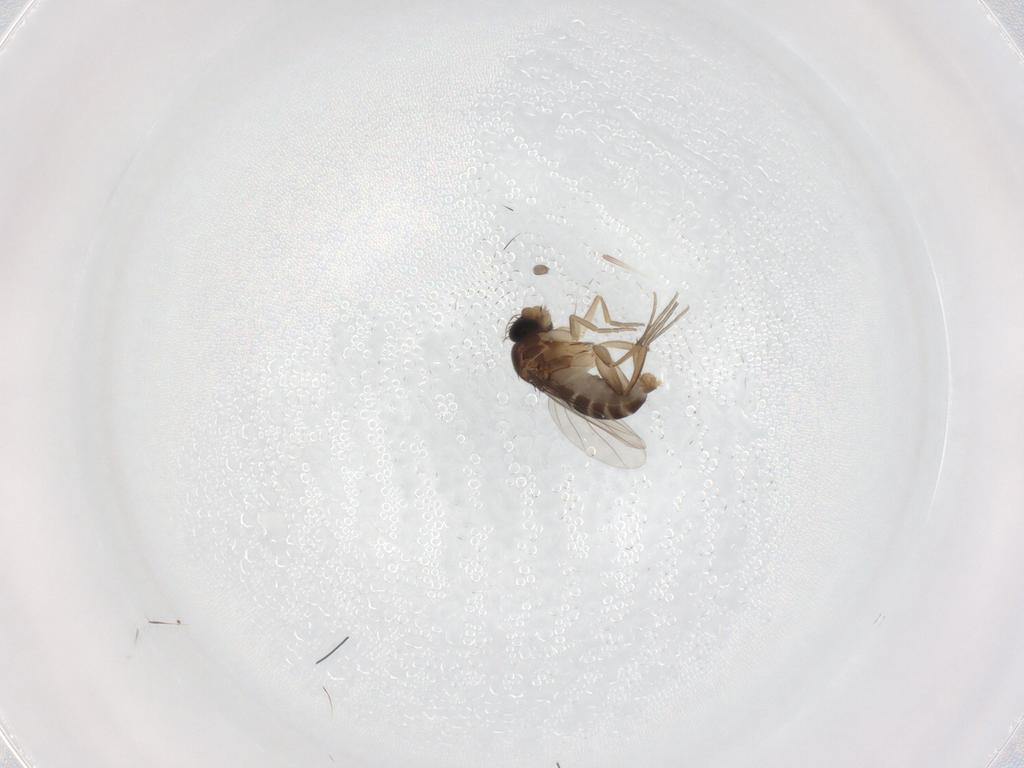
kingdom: Animalia
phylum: Arthropoda
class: Insecta
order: Diptera
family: Phoridae
